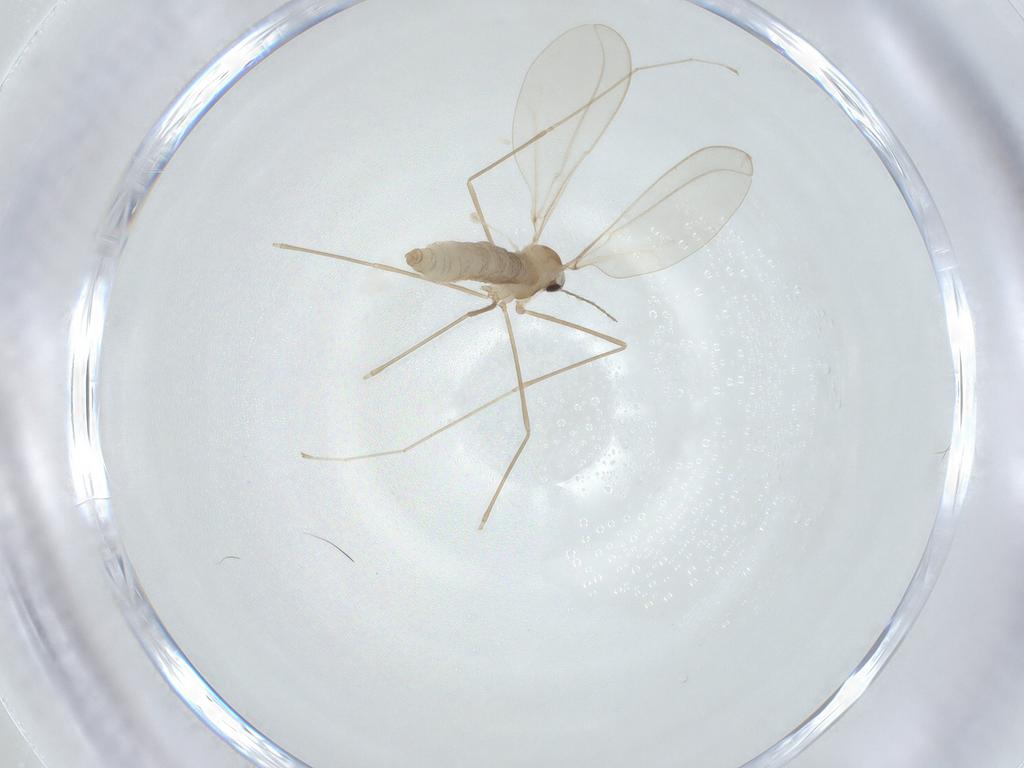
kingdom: Animalia
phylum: Arthropoda
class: Insecta
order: Diptera
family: Cecidomyiidae
